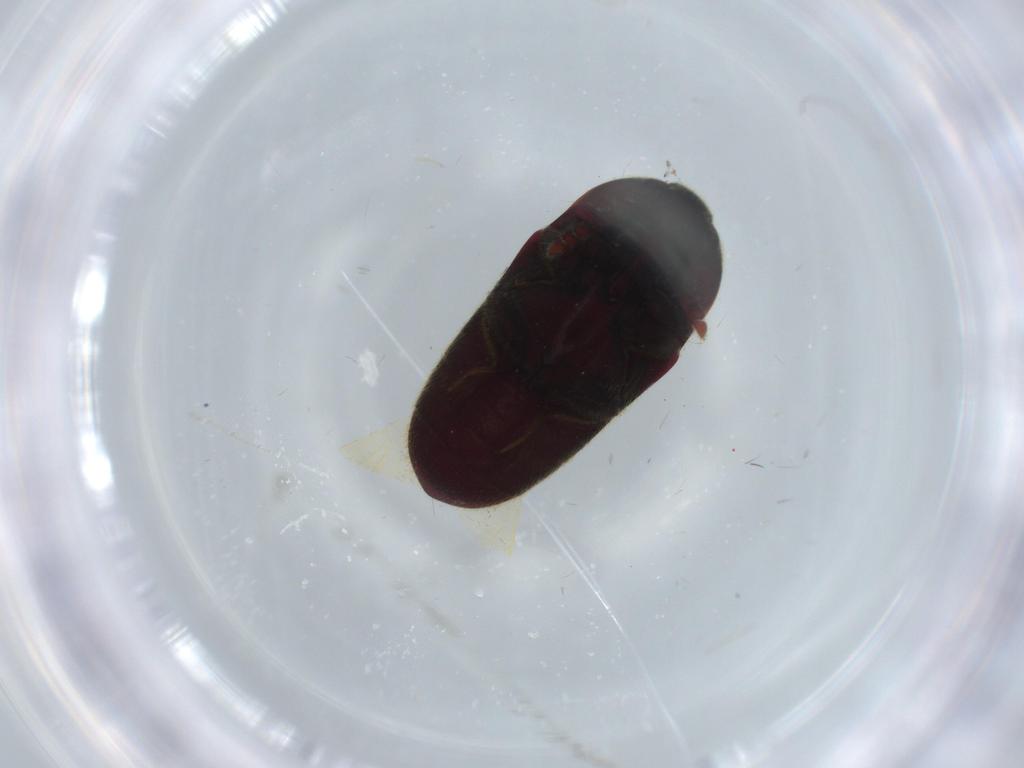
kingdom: Animalia
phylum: Arthropoda
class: Insecta
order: Coleoptera
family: Throscidae
